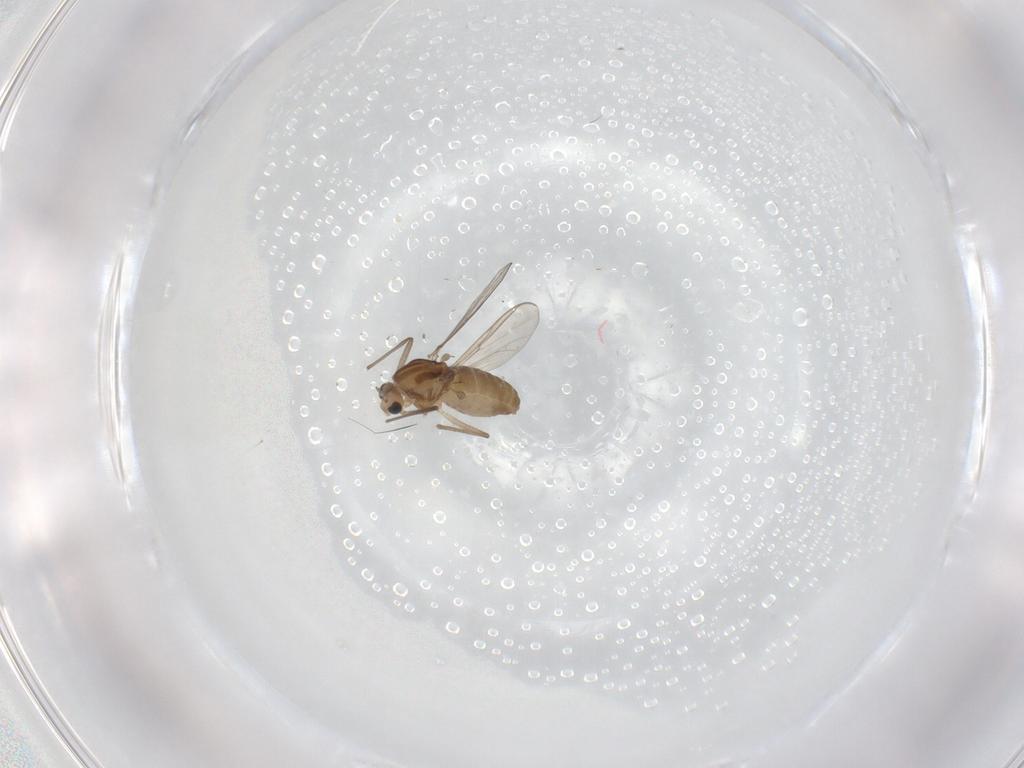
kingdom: Animalia
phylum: Arthropoda
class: Insecta
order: Diptera
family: Chironomidae
